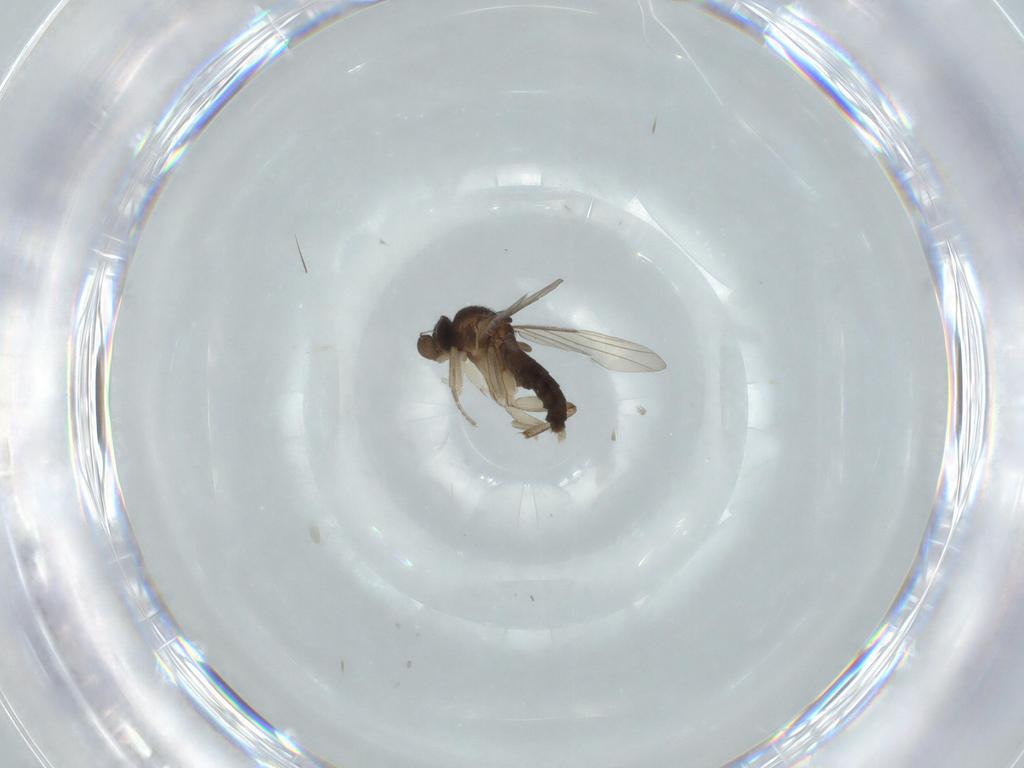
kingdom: Animalia
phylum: Arthropoda
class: Insecta
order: Diptera
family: Phoridae
